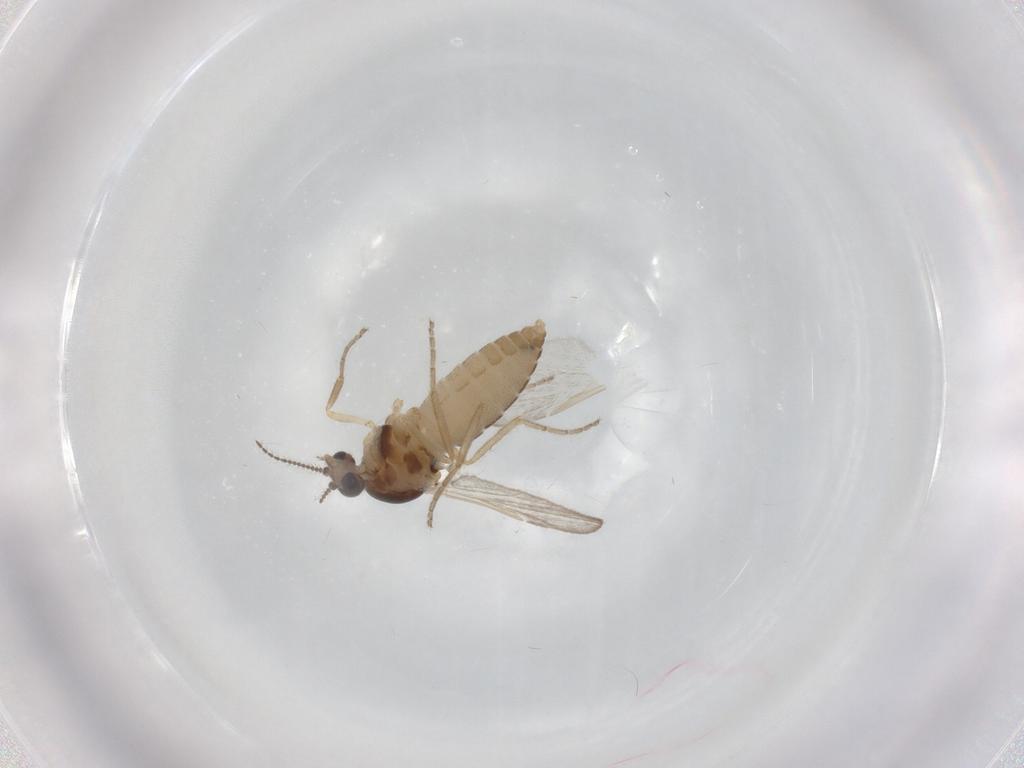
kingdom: Animalia
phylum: Arthropoda
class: Insecta
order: Diptera
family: Ceratopogonidae
